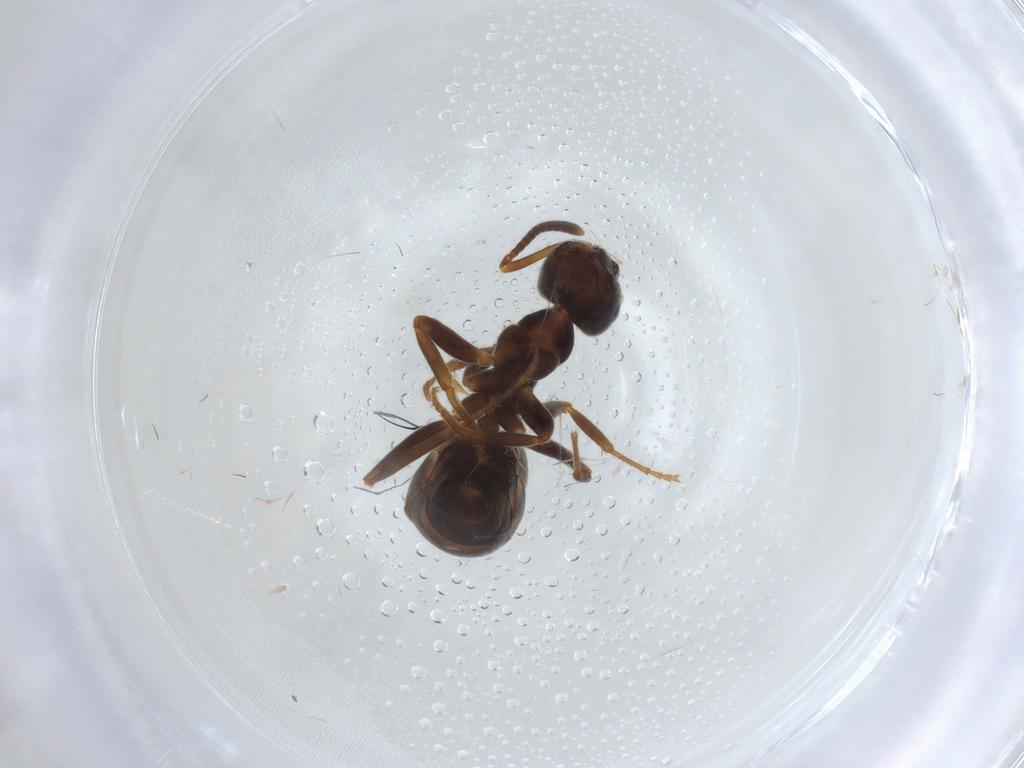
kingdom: Animalia
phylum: Arthropoda
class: Insecta
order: Hymenoptera
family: Formicidae
